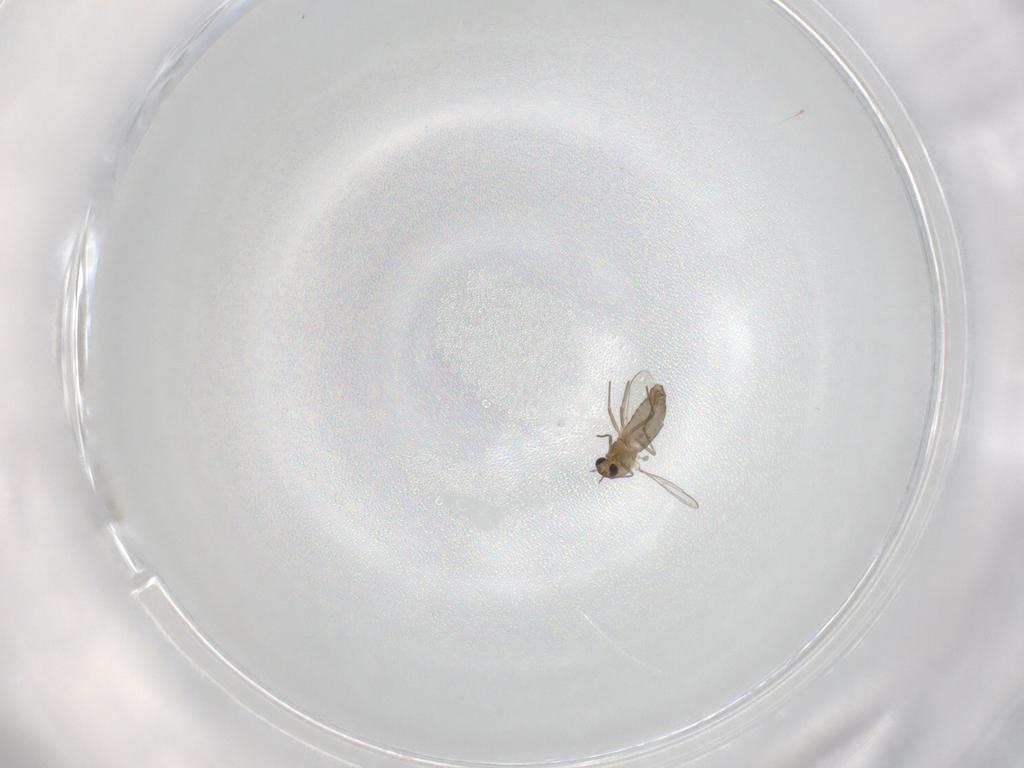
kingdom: Animalia
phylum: Arthropoda
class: Insecta
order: Diptera
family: Chironomidae
